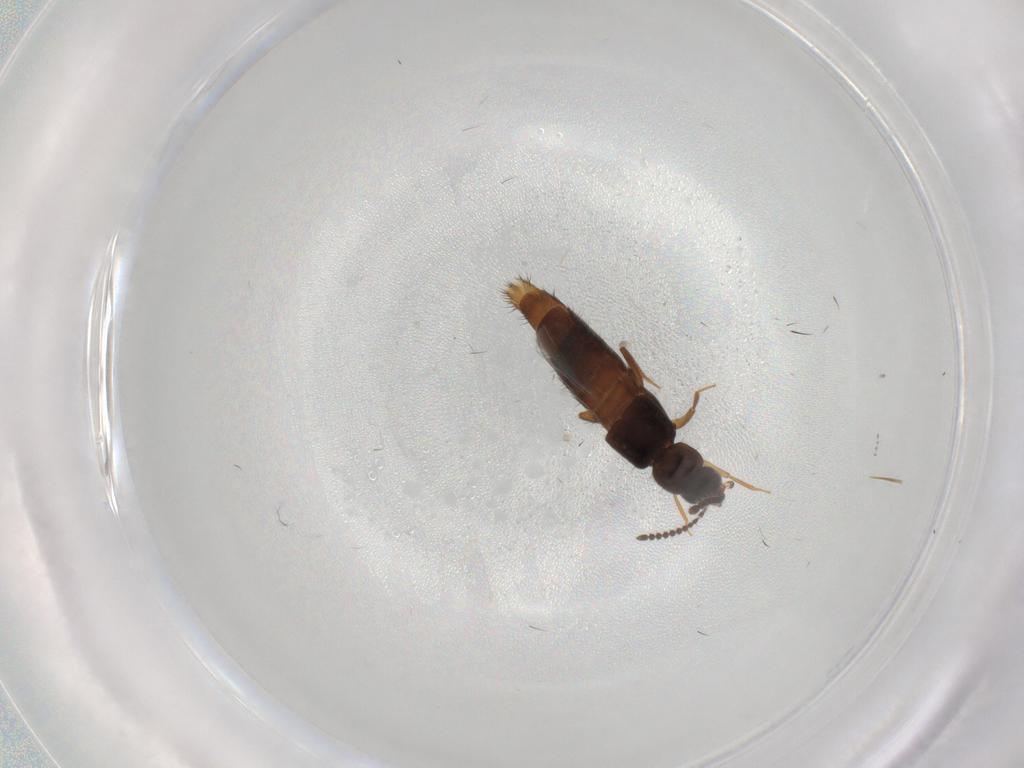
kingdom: Animalia
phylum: Arthropoda
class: Insecta
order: Coleoptera
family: Staphylinidae
